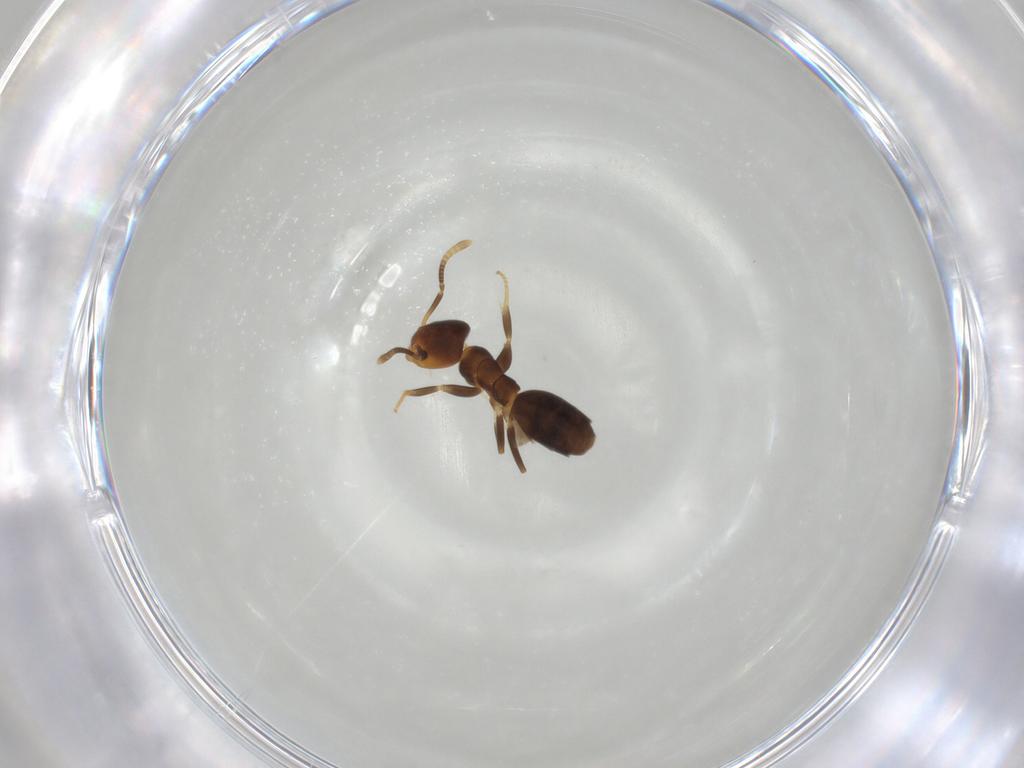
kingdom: Animalia
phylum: Arthropoda
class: Insecta
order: Hymenoptera
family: Formicidae
